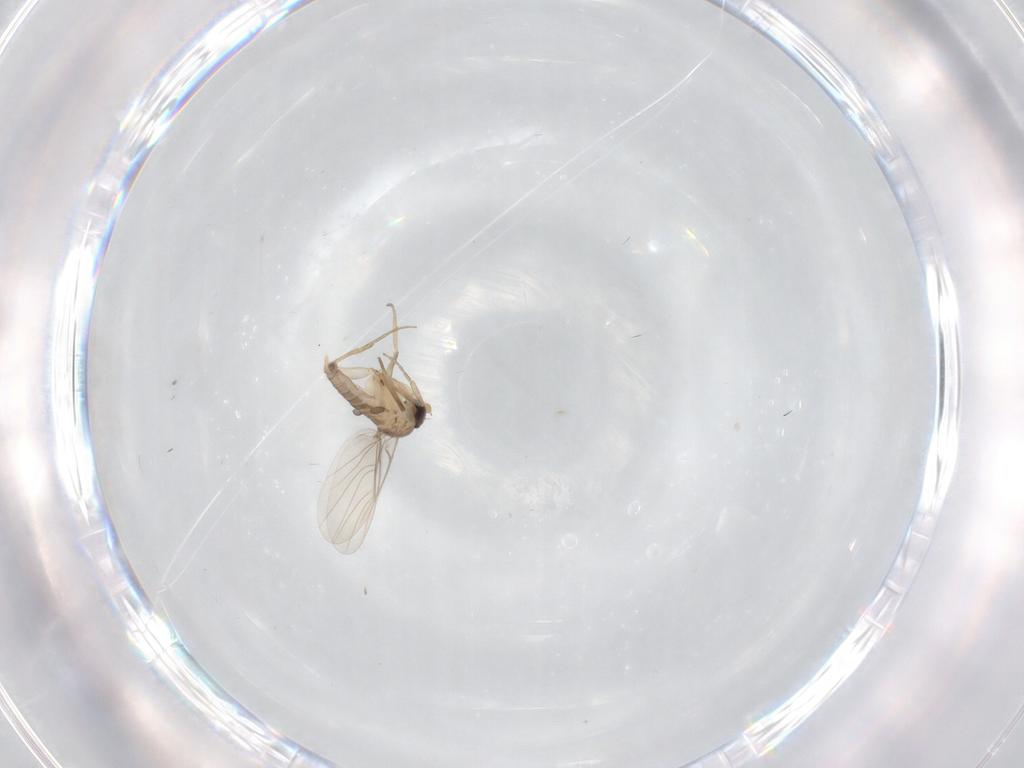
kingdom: Animalia
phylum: Arthropoda
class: Insecta
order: Diptera
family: Phoridae
